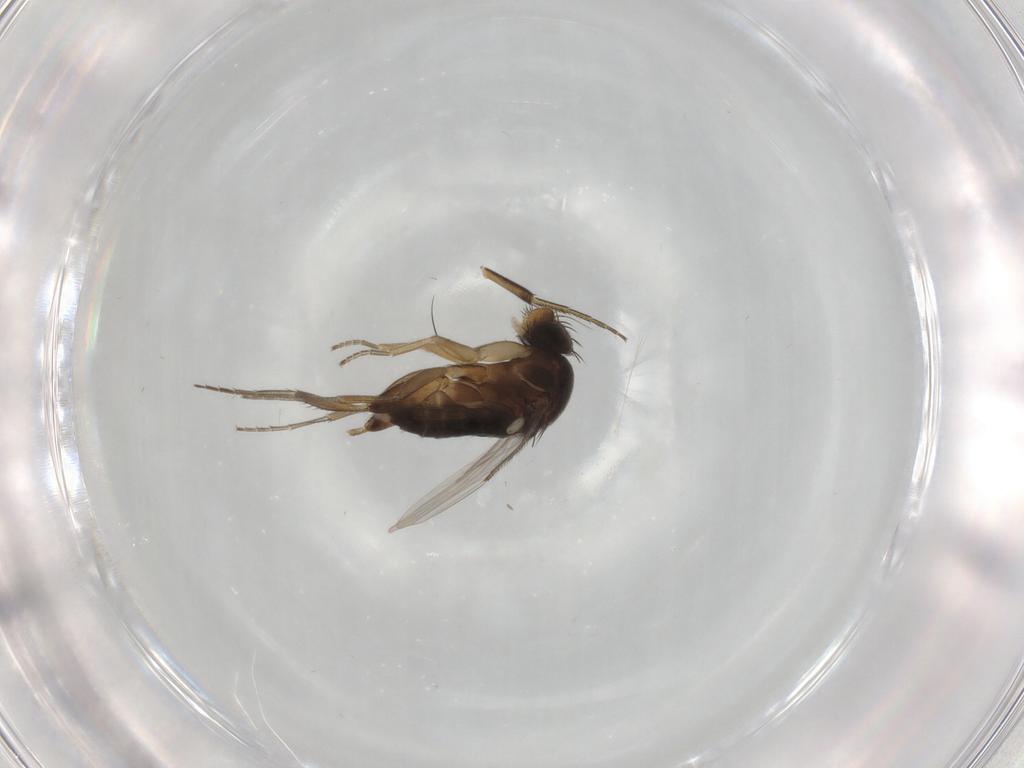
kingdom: Animalia
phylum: Arthropoda
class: Insecta
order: Diptera
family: Phoridae
